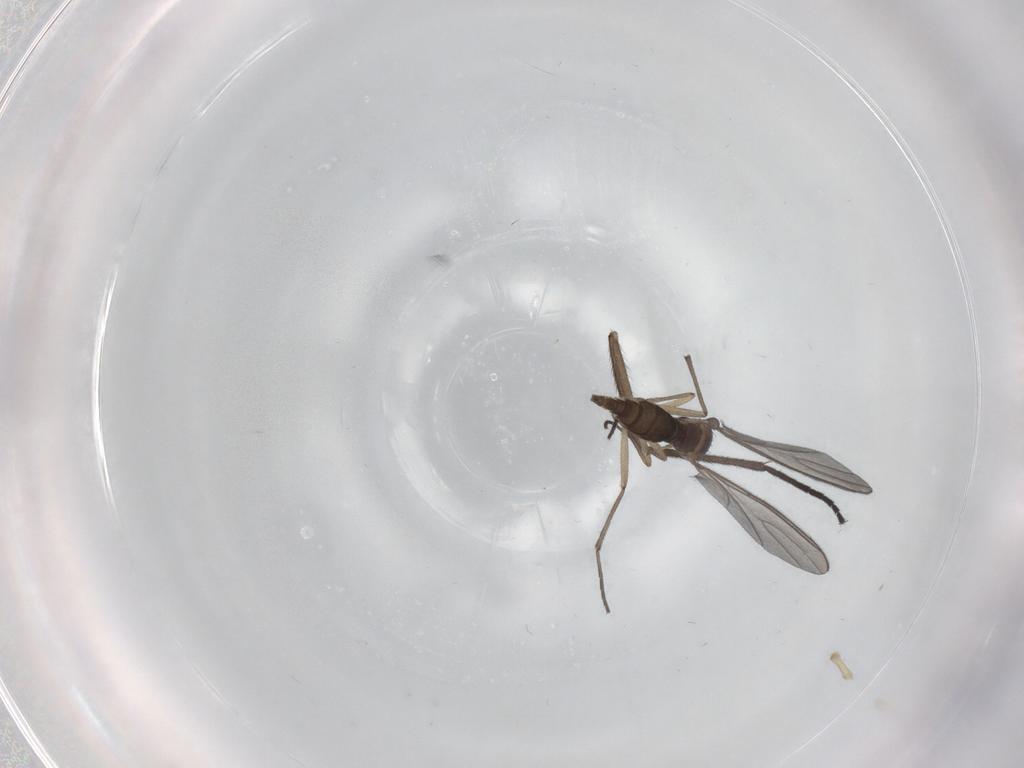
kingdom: Animalia
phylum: Arthropoda
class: Insecta
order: Diptera
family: Sciaridae
